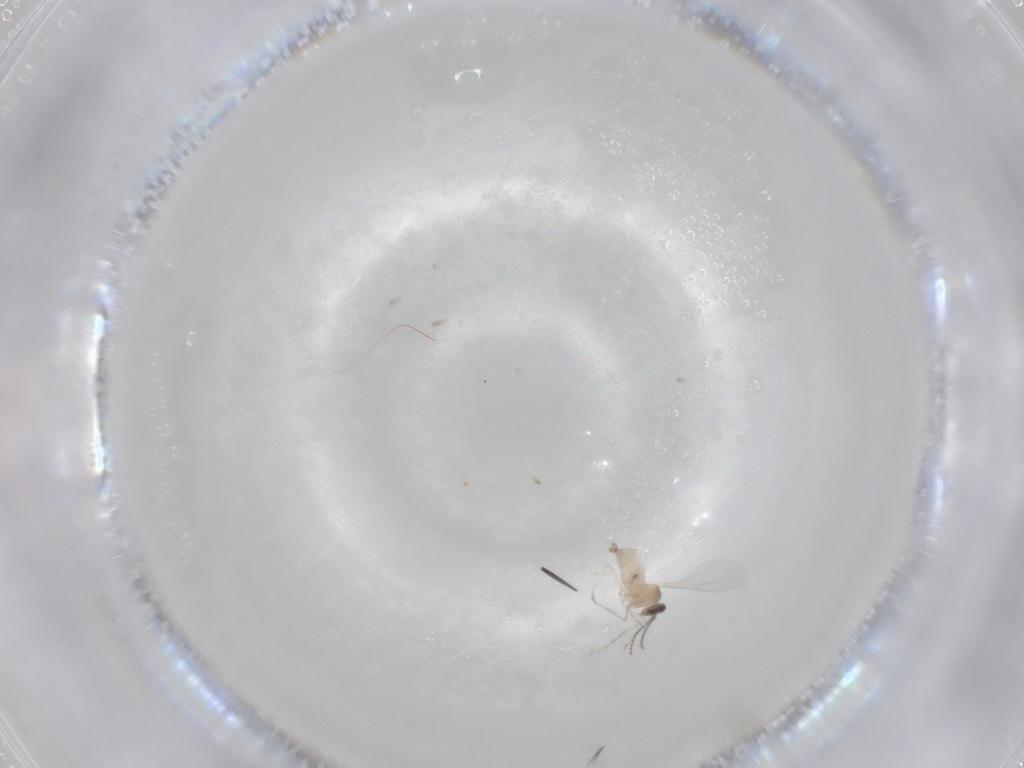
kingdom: Animalia
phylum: Arthropoda
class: Insecta
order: Diptera
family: Cecidomyiidae
